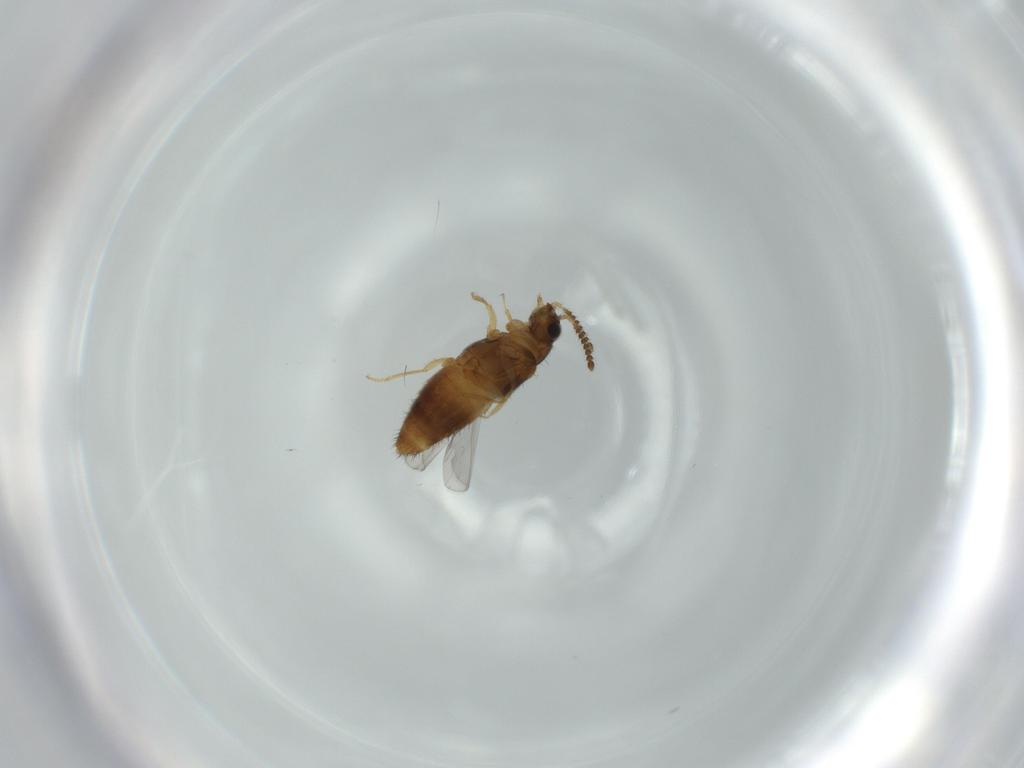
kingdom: Animalia
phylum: Arthropoda
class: Insecta
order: Coleoptera
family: Staphylinidae
